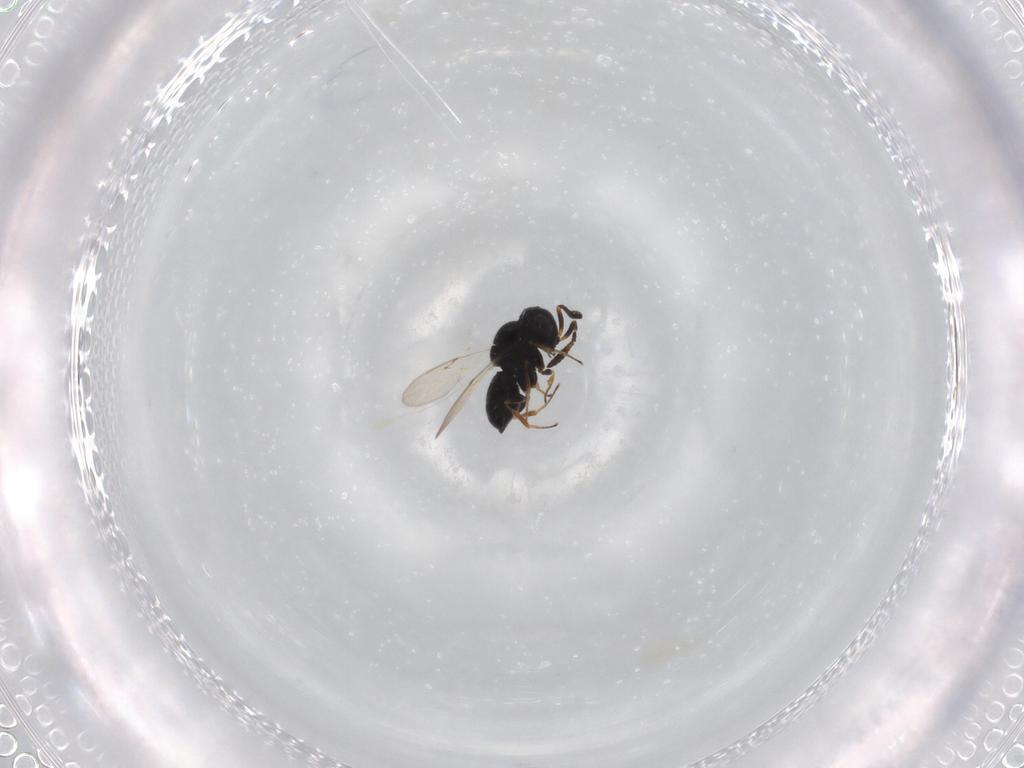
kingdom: Animalia
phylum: Arthropoda
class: Insecta
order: Hymenoptera
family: Scelionidae
